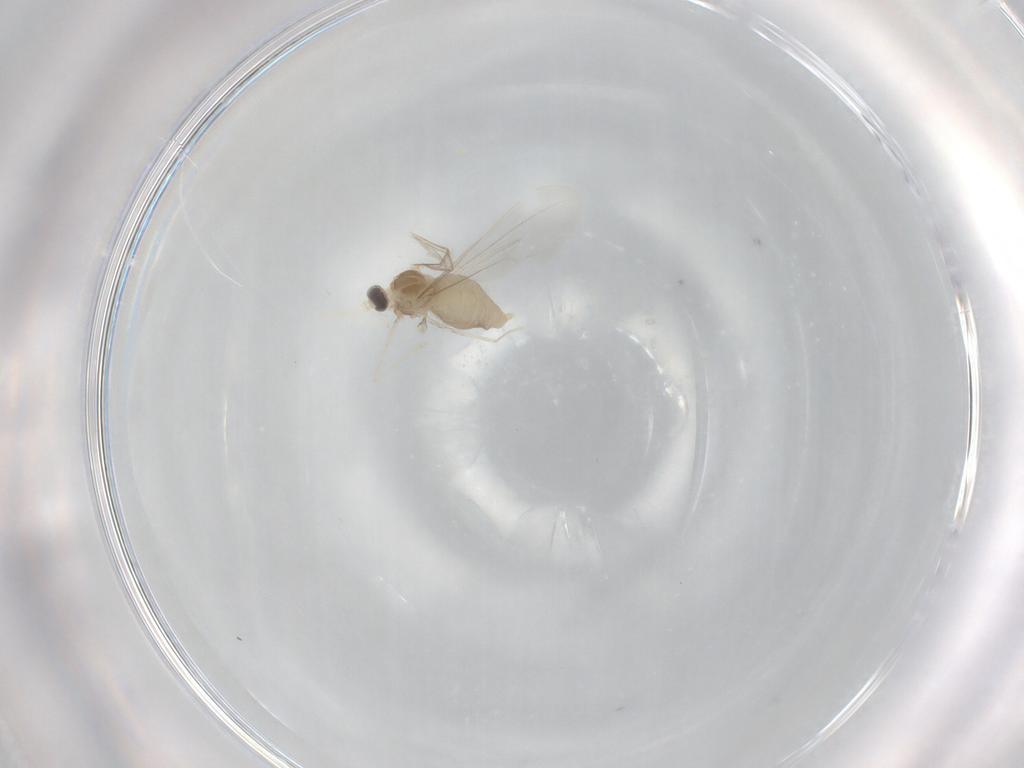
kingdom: Animalia
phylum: Arthropoda
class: Insecta
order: Diptera
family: Cecidomyiidae
